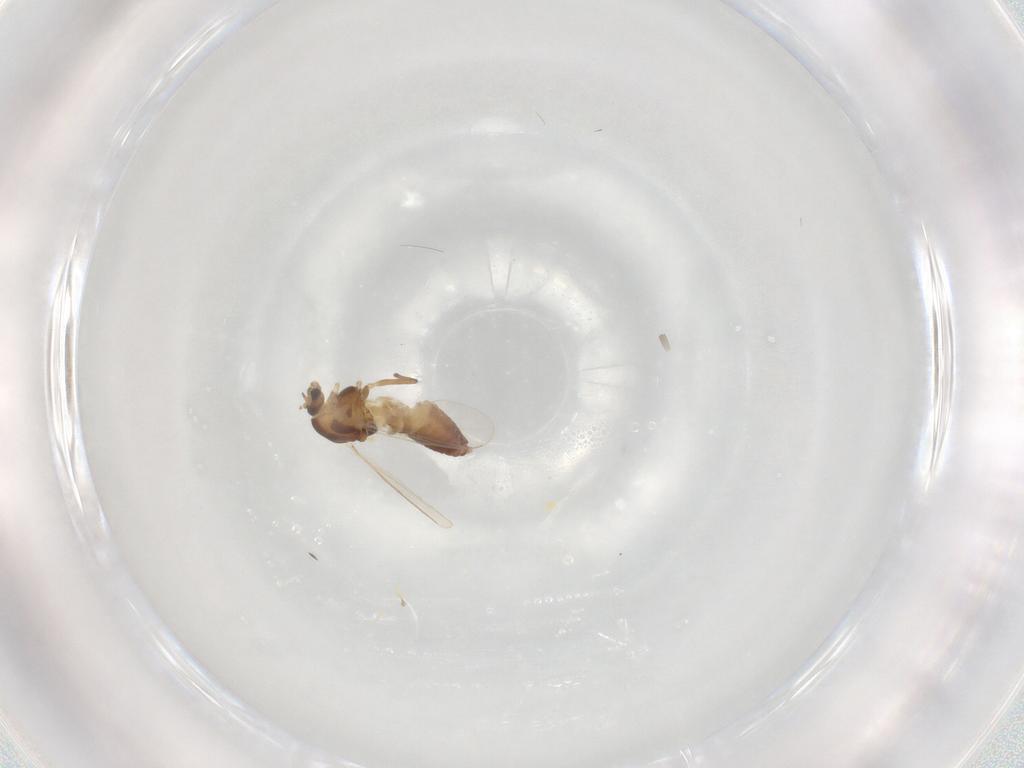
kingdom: Animalia
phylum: Arthropoda
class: Insecta
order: Diptera
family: Chironomidae
